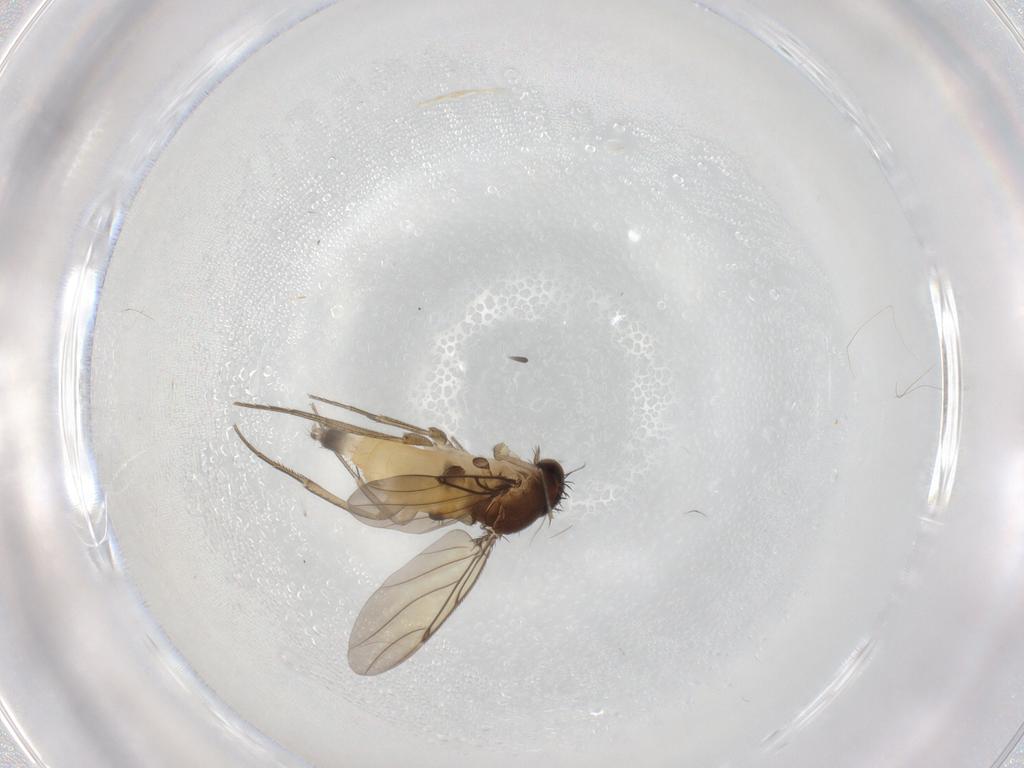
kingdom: Animalia
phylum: Arthropoda
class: Insecta
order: Diptera
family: Phoridae
